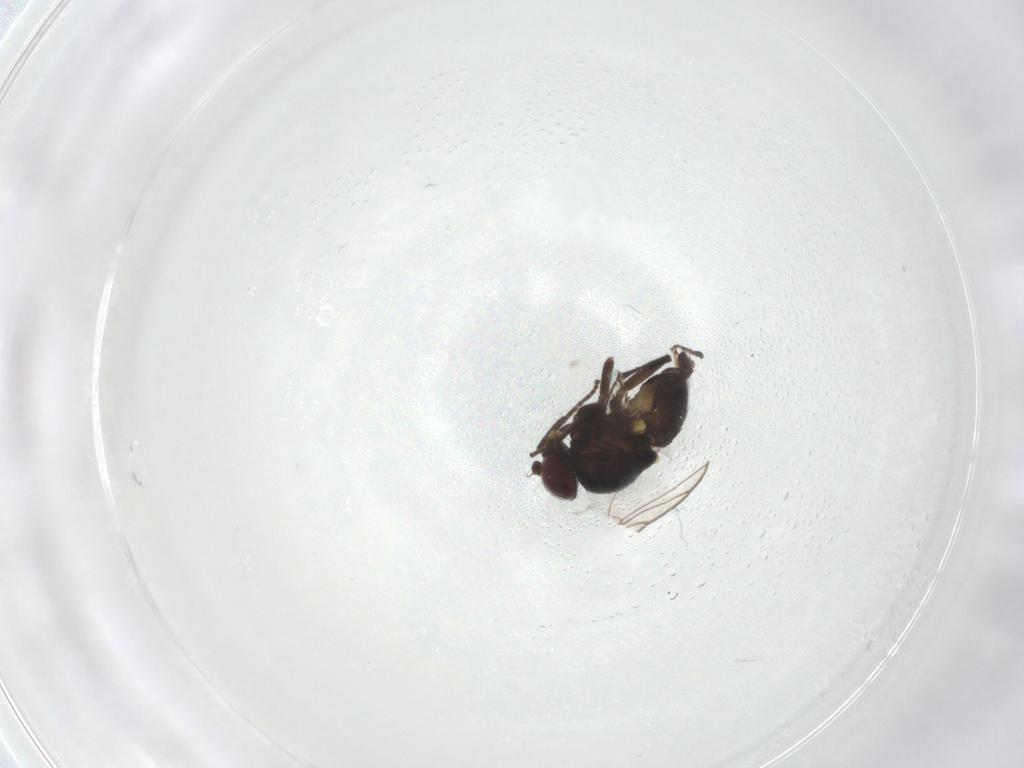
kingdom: Animalia
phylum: Arthropoda
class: Insecta
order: Diptera
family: Agromyzidae
